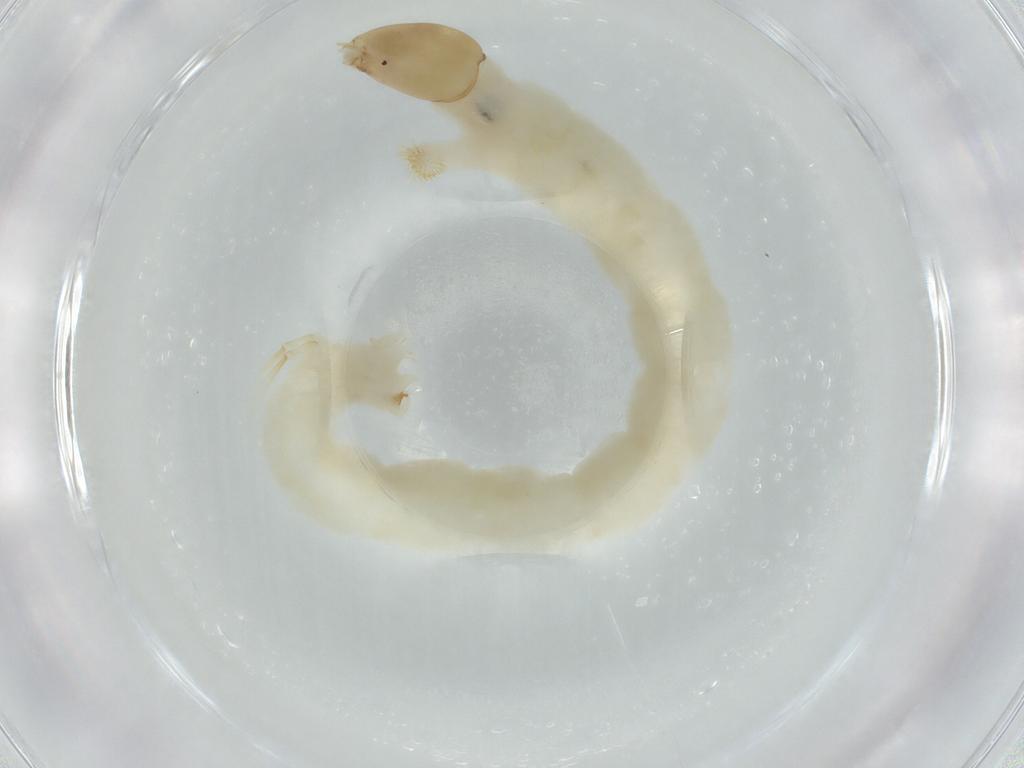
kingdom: Animalia
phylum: Arthropoda
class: Insecta
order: Diptera
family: Chironomidae
